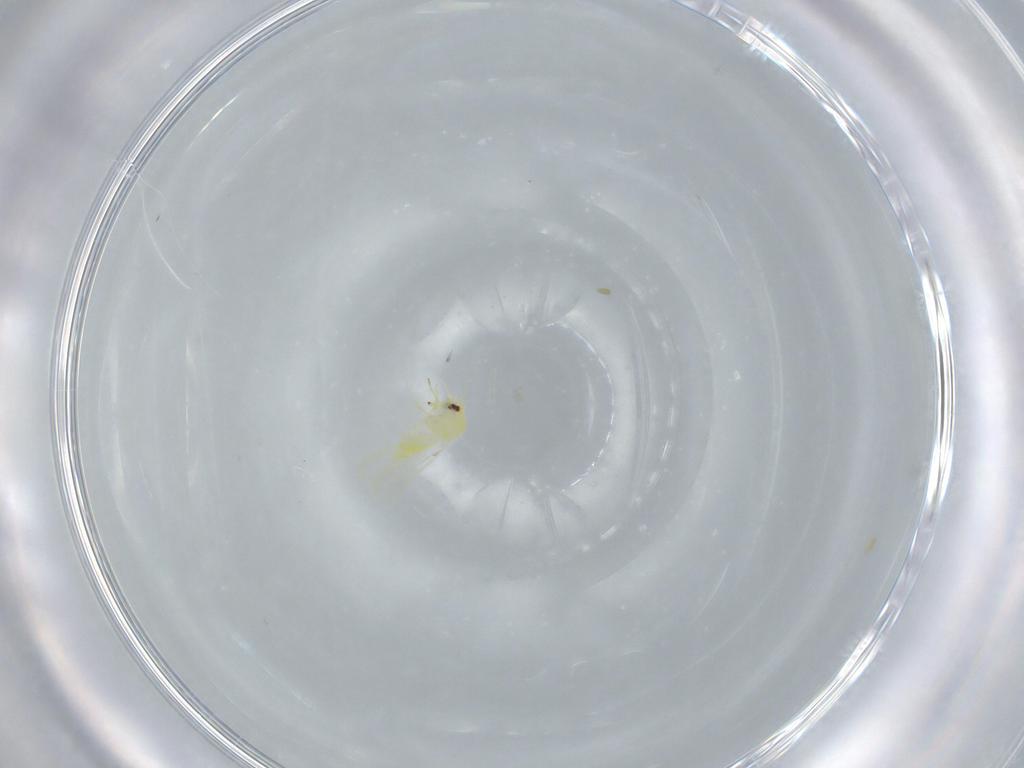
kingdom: Animalia
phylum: Arthropoda
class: Insecta
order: Hemiptera
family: Aleyrodidae
